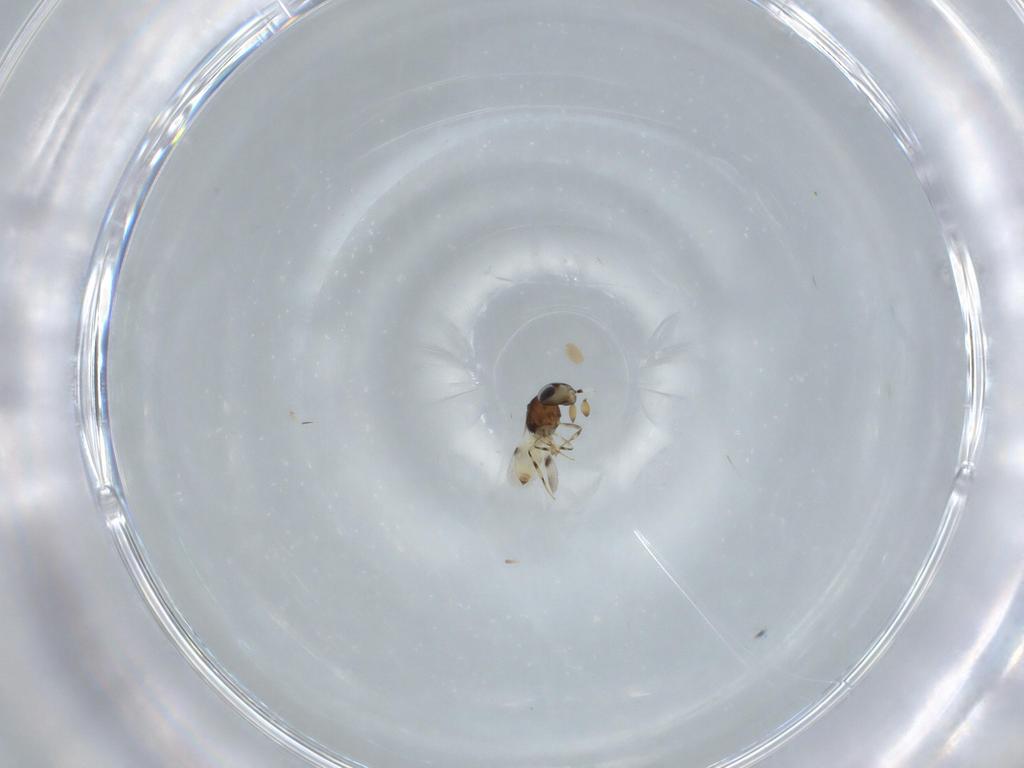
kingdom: Animalia
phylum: Arthropoda
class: Insecta
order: Hymenoptera
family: Scelionidae
